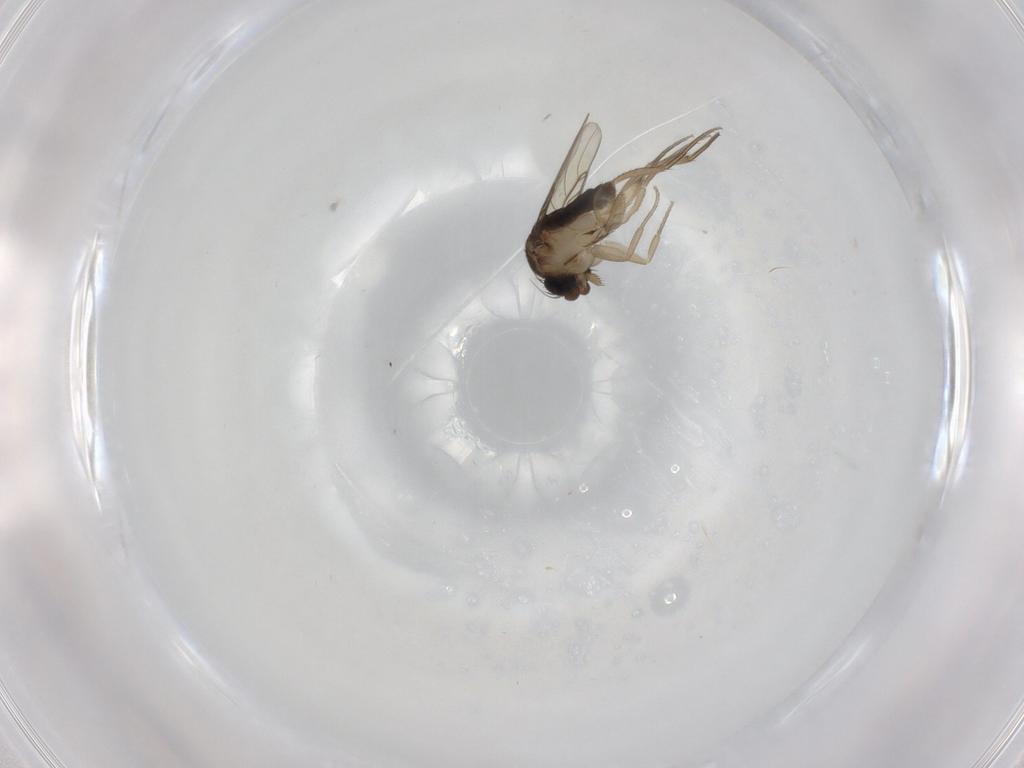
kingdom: Animalia
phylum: Arthropoda
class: Insecta
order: Diptera
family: Phoridae
